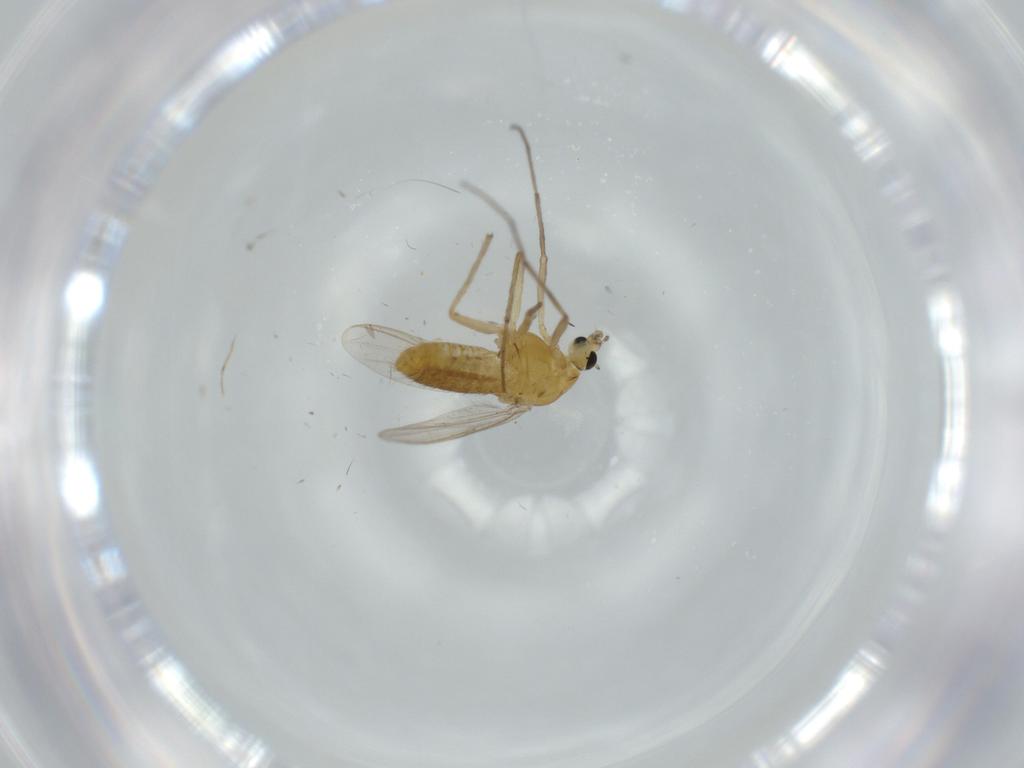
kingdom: Animalia
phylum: Arthropoda
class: Insecta
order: Diptera
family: Chironomidae
